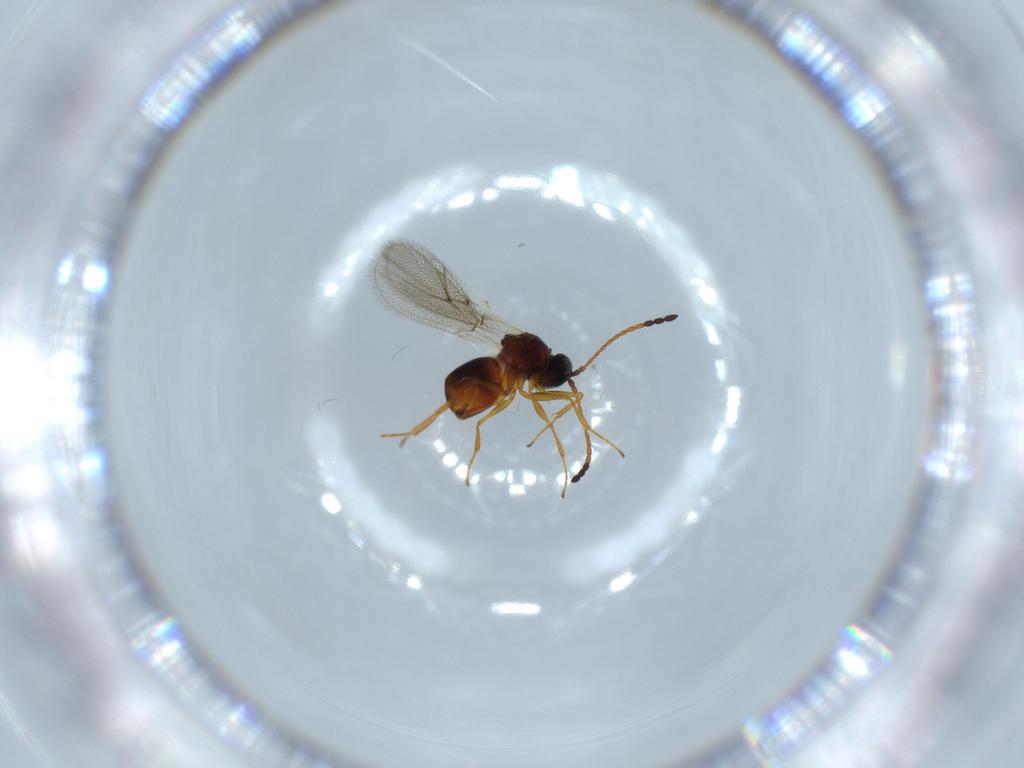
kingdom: Animalia
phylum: Arthropoda
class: Insecta
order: Hymenoptera
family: Figitidae
